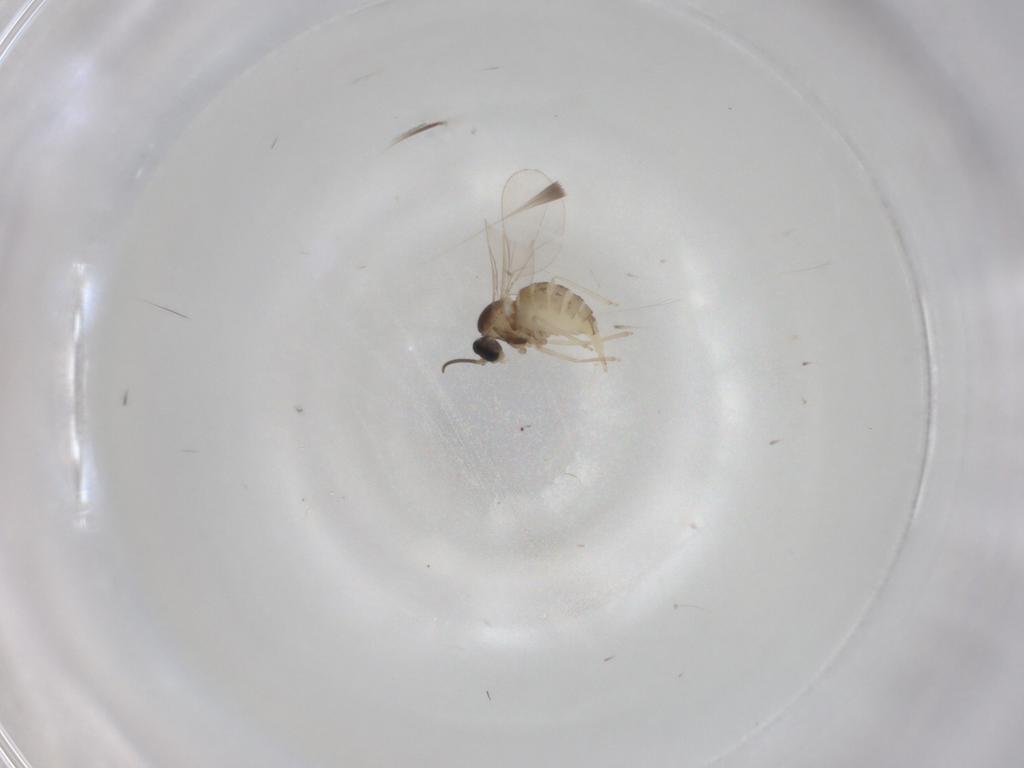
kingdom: Animalia
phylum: Arthropoda
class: Insecta
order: Diptera
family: Cecidomyiidae
